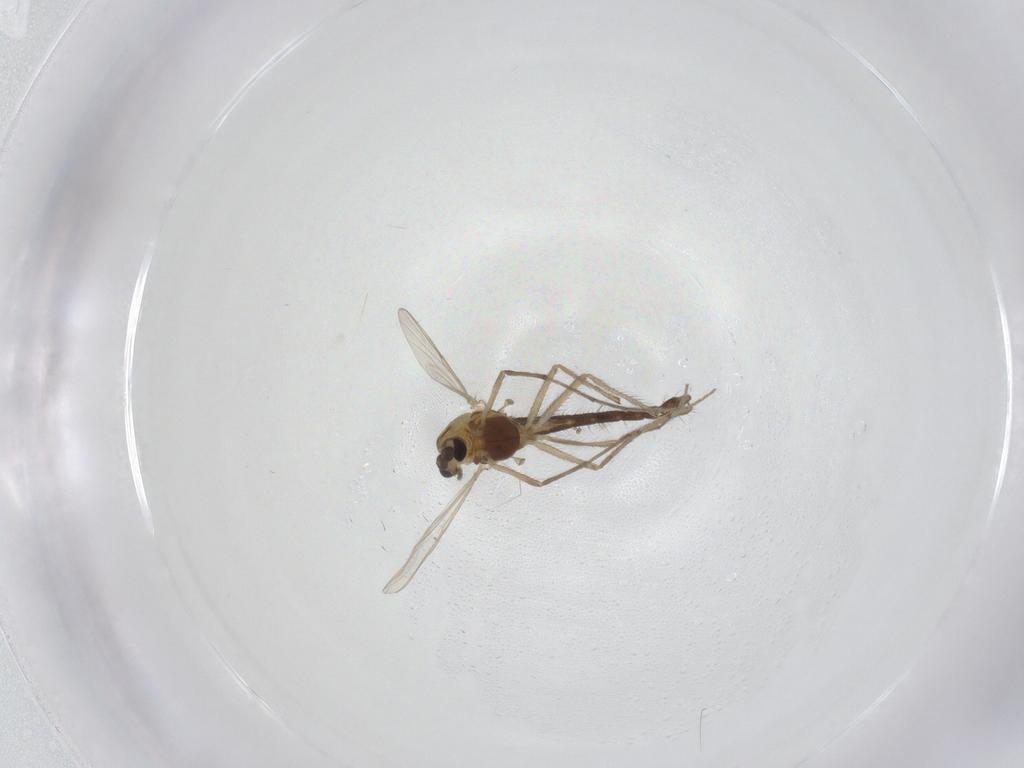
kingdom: Animalia
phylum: Arthropoda
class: Insecta
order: Diptera
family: Chironomidae
